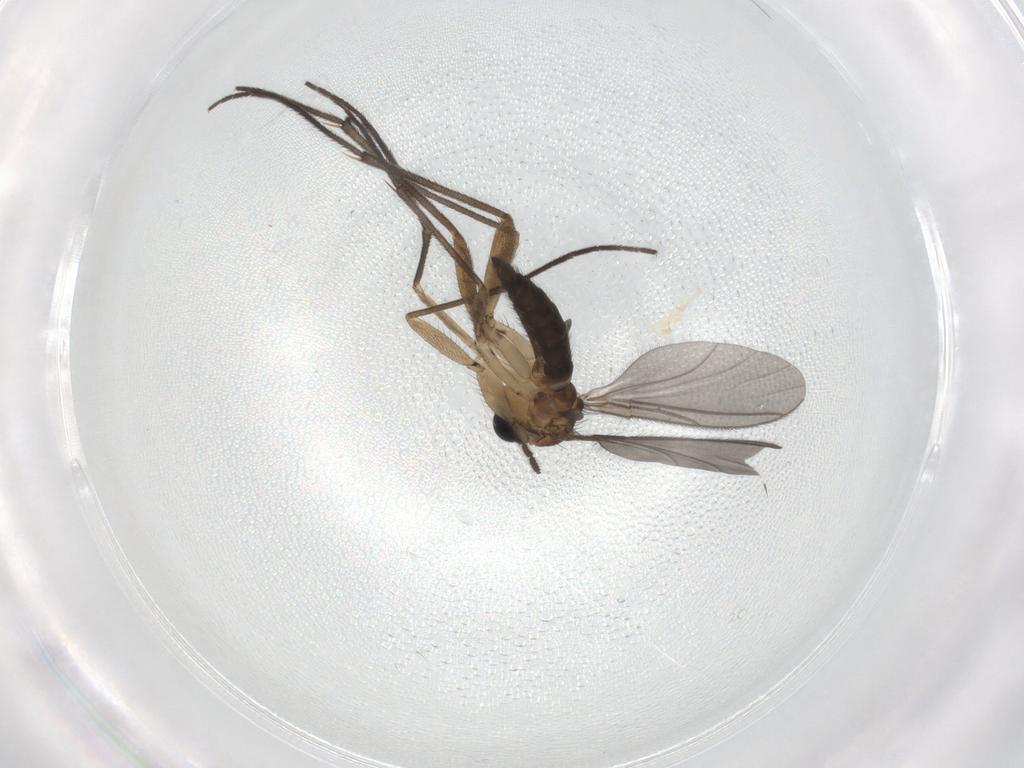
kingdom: Animalia
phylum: Arthropoda
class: Insecta
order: Diptera
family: Sciaridae
